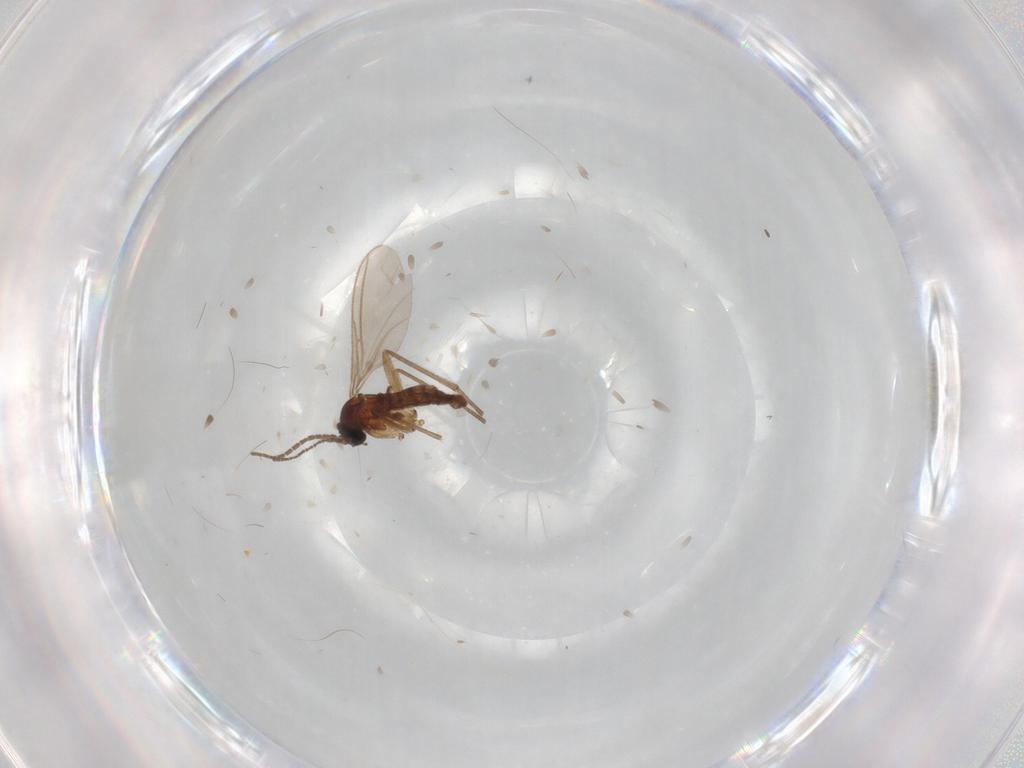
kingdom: Animalia
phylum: Arthropoda
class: Insecta
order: Diptera
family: Sciaridae
